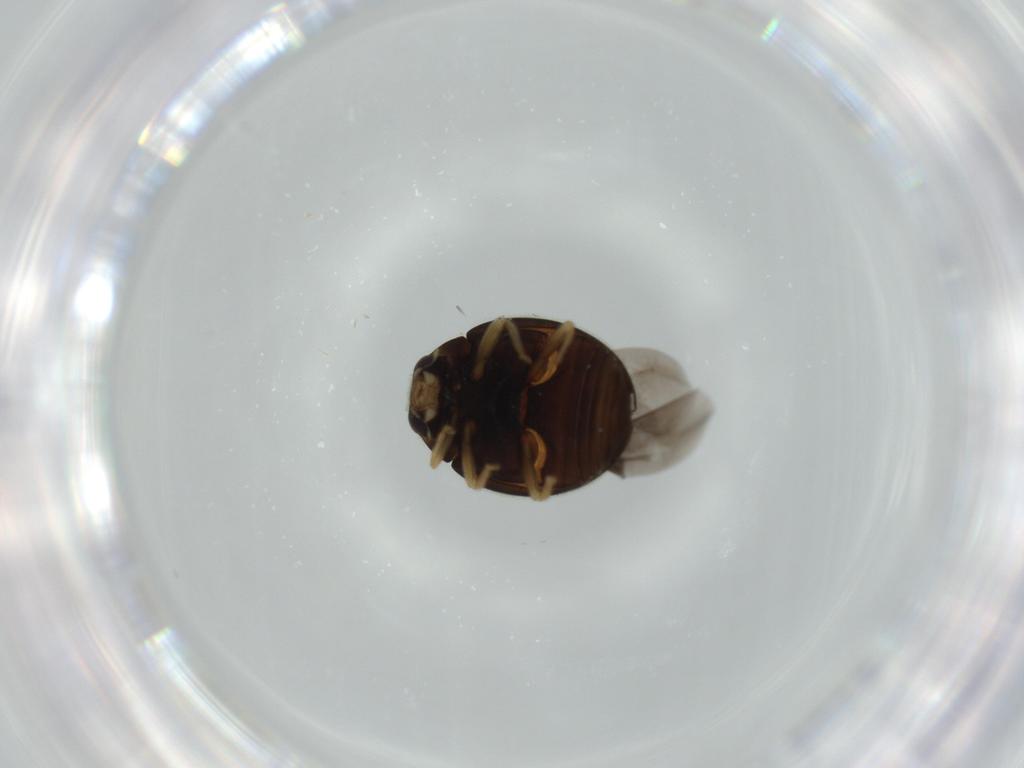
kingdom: Animalia
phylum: Arthropoda
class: Insecta
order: Coleoptera
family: Coccinellidae
